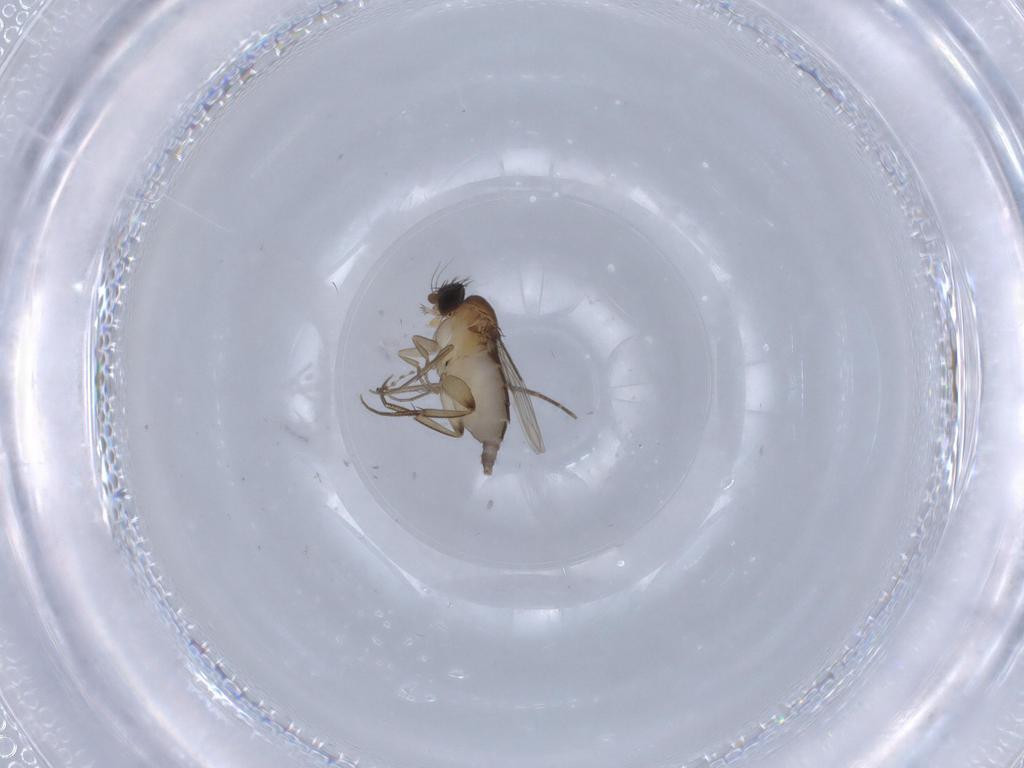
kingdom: Animalia
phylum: Arthropoda
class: Insecta
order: Diptera
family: Phoridae
